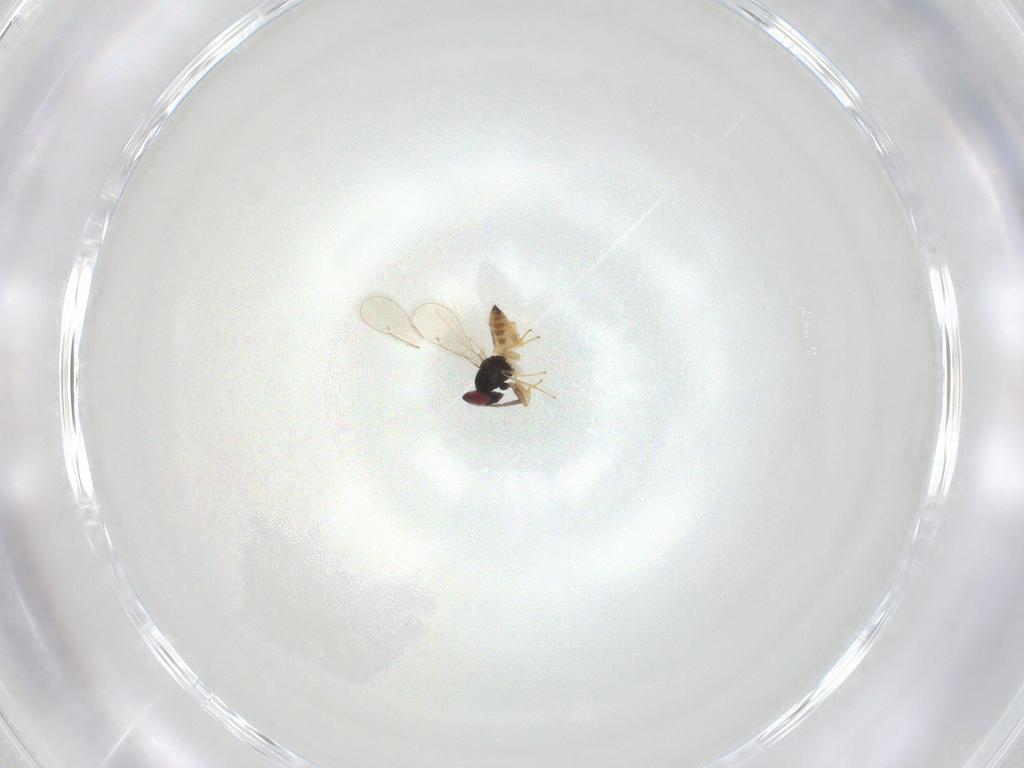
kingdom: Animalia
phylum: Arthropoda
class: Insecta
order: Hymenoptera
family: Eulophidae
